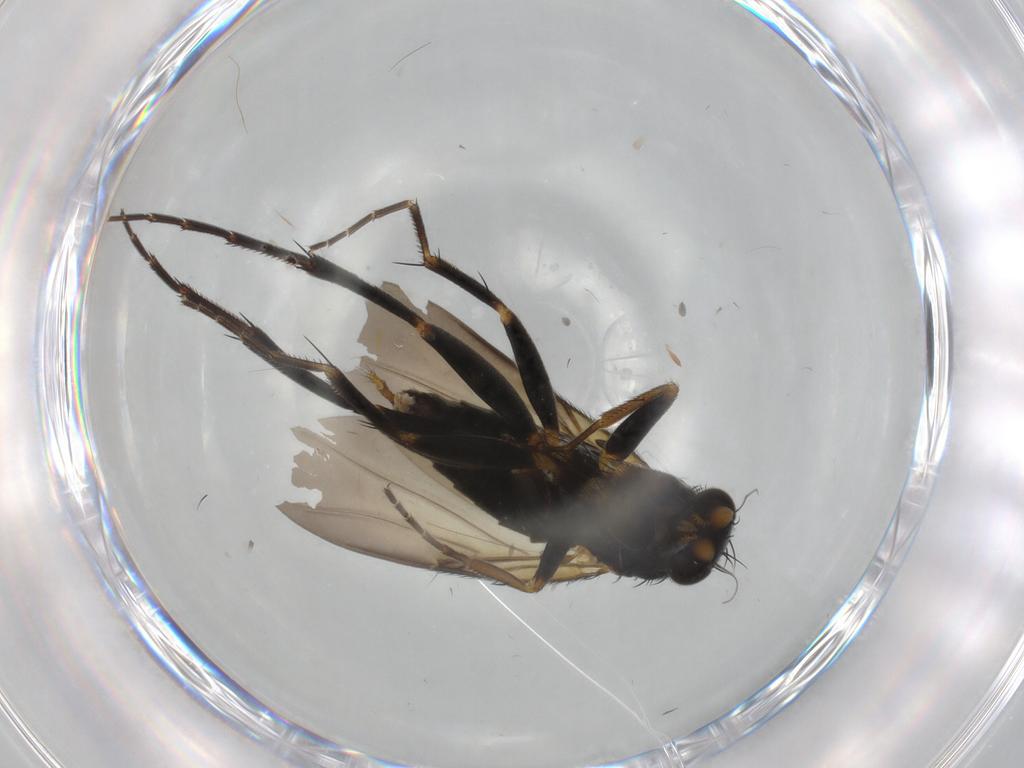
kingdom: Animalia
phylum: Arthropoda
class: Insecta
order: Diptera
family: Phoridae
